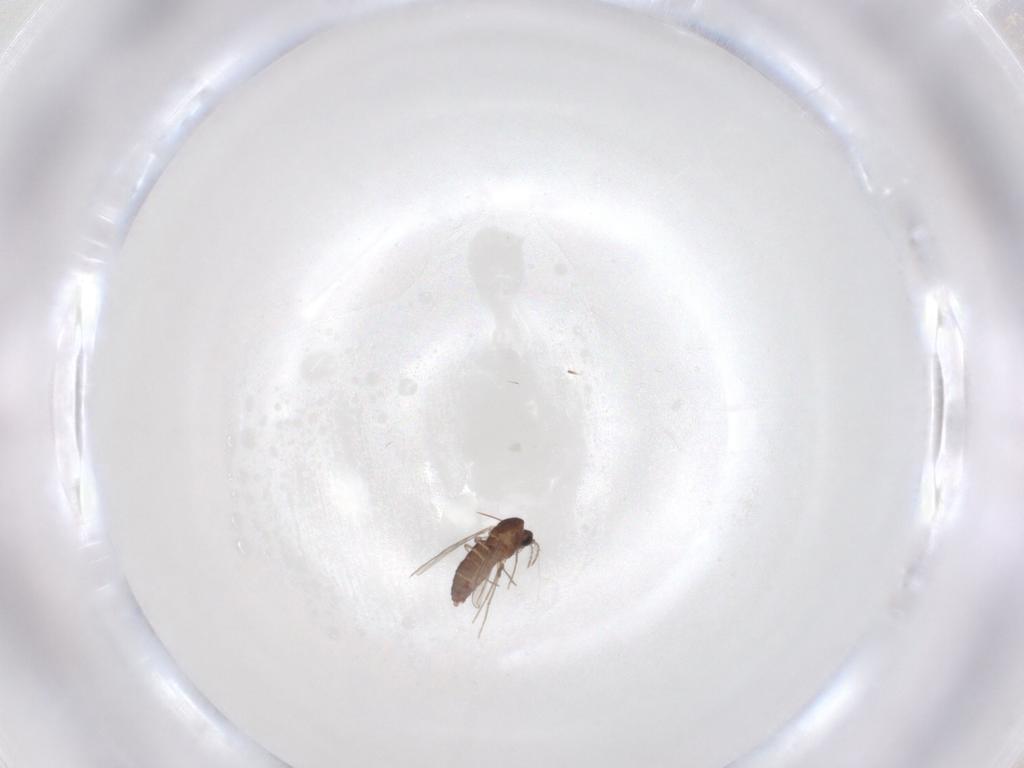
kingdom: Animalia
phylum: Arthropoda
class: Insecta
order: Diptera
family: Chironomidae
